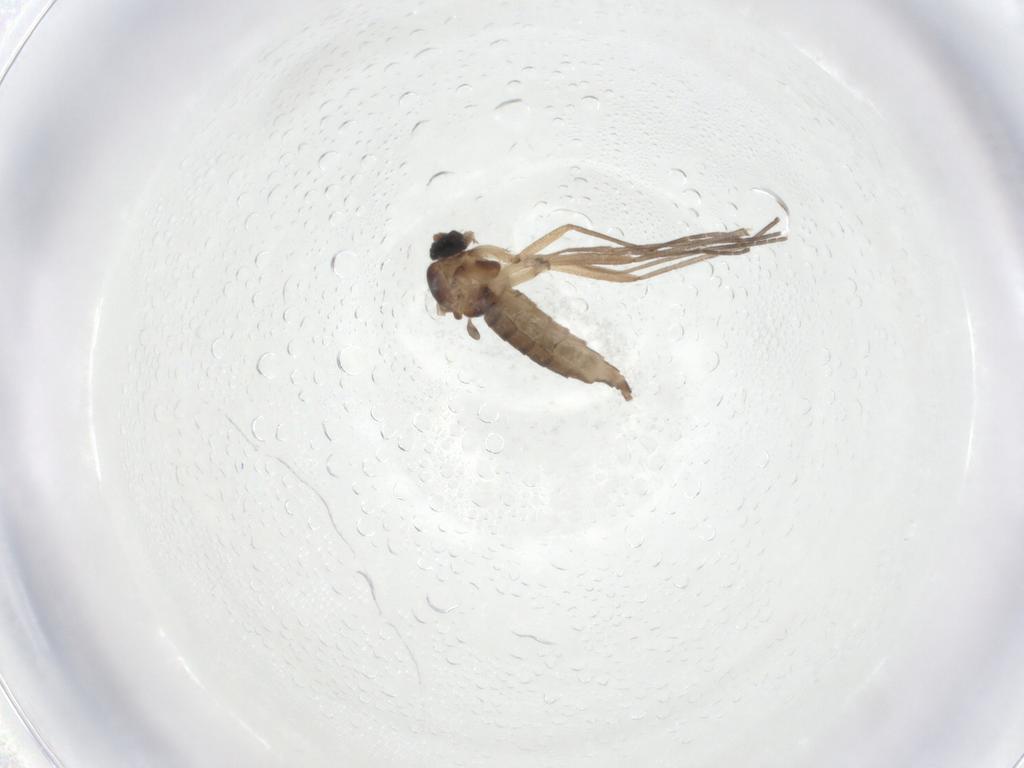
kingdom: Animalia
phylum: Arthropoda
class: Insecta
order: Diptera
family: Sciaridae
